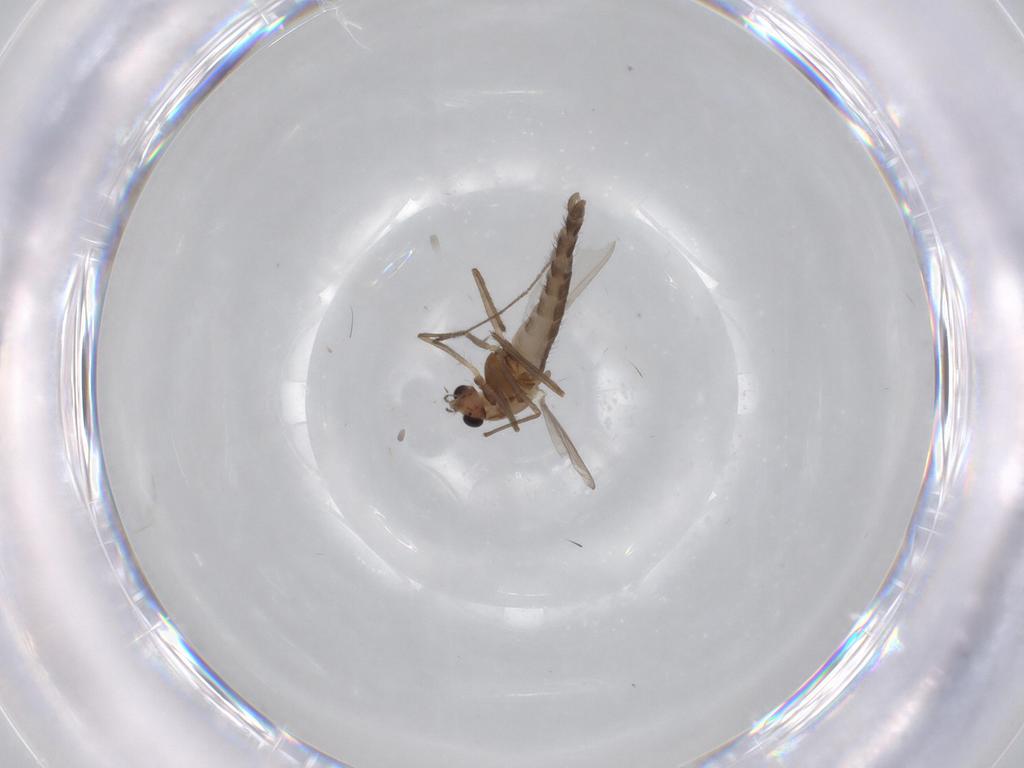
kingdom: Animalia
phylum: Arthropoda
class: Insecta
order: Diptera
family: Chironomidae
